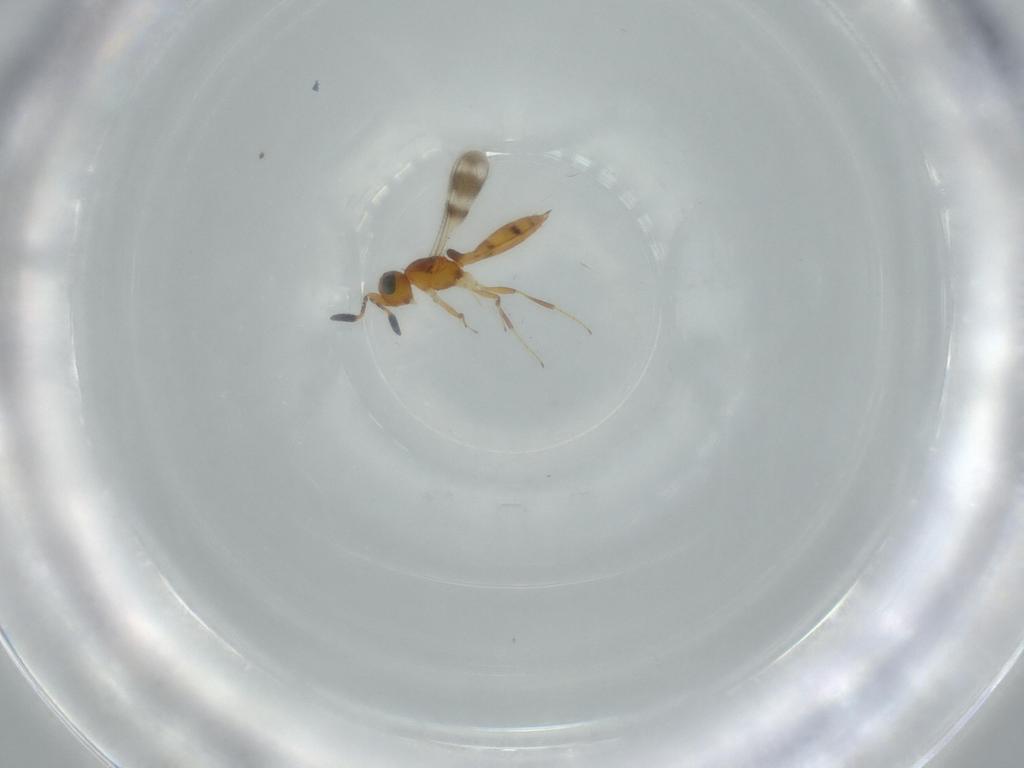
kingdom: Animalia
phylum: Arthropoda
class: Insecta
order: Hymenoptera
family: Scelionidae
